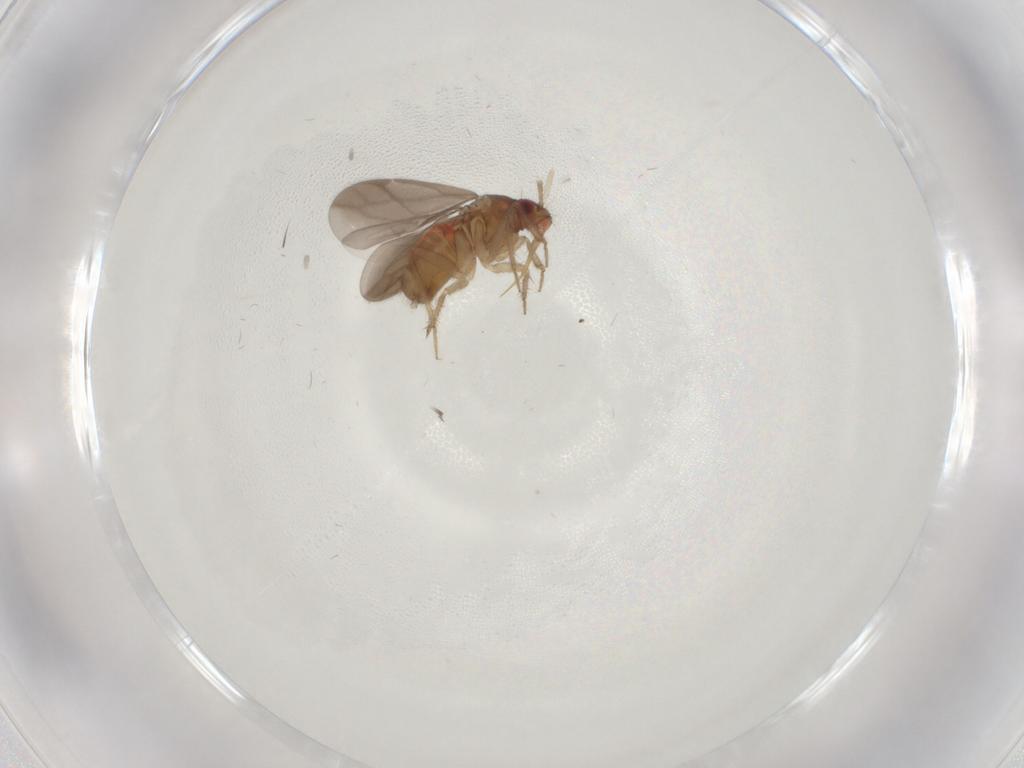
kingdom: Animalia
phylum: Arthropoda
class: Insecta
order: Hemiptera
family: Ceratocombidae
